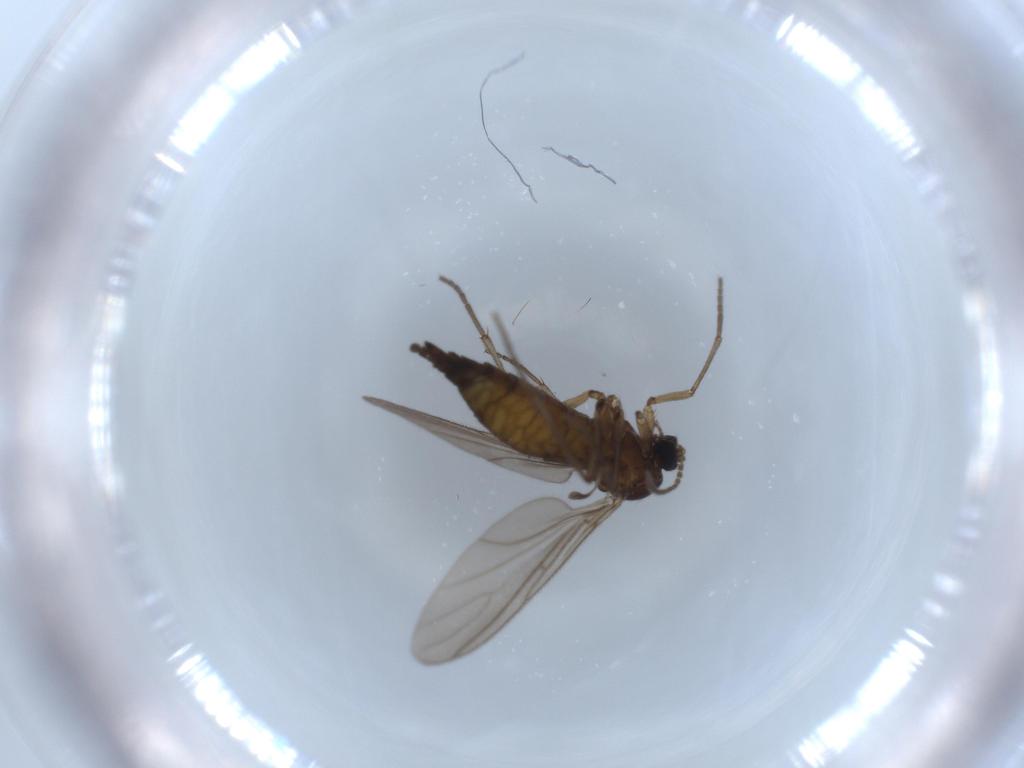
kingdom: Animalia
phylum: Arthropoda
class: Insecta
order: Diptera
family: Sciaridae
